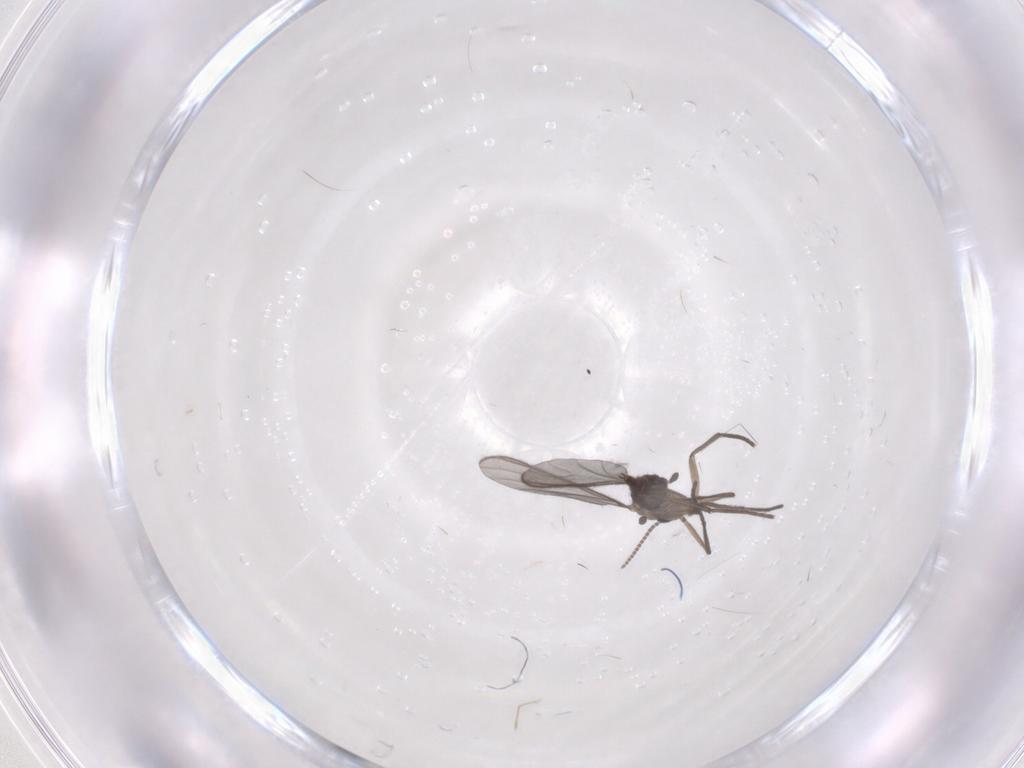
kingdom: Animalia
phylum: Arthropoda
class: Insecta
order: Diptera
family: Sciaridae
